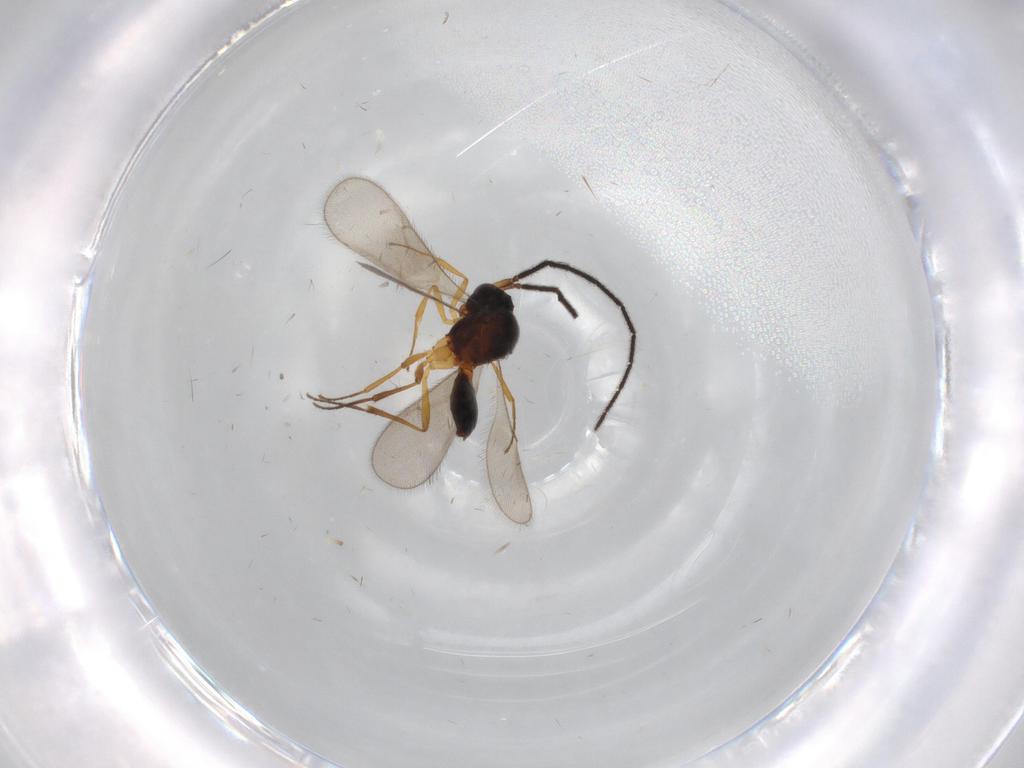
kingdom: Animalia
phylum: Arthropoda
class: Insecta
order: Hymenoptera
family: Scelionidae
